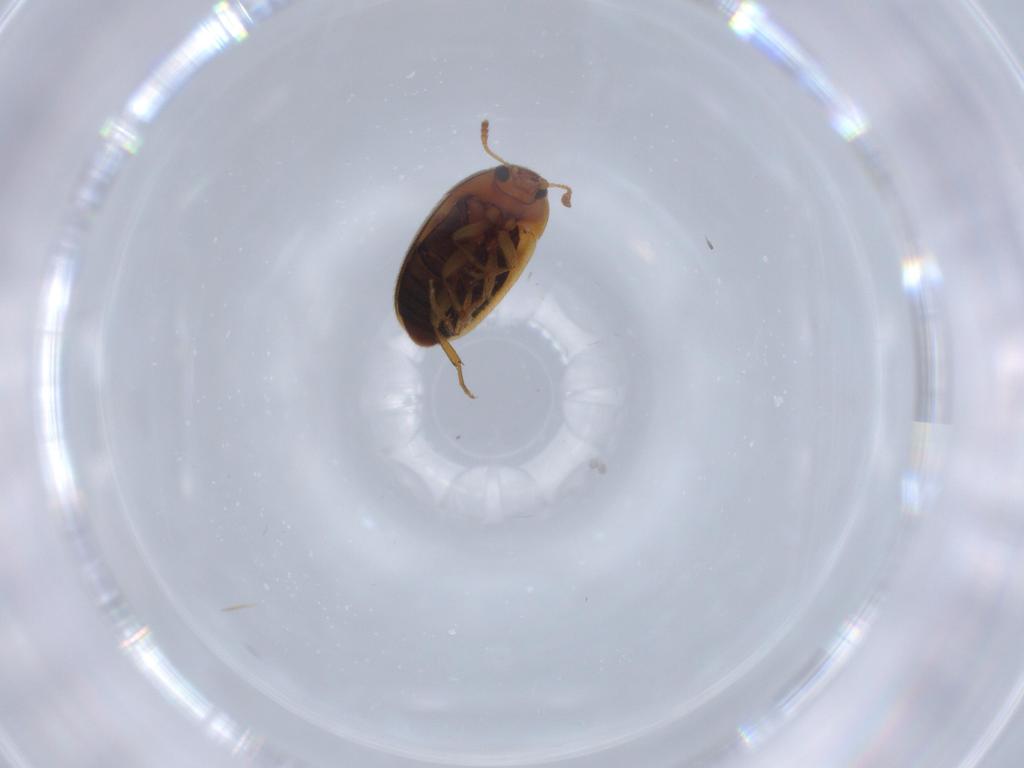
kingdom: Animalia
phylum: Arthropoda
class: Insecta
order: Coleoptera
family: Mycetophagidae
